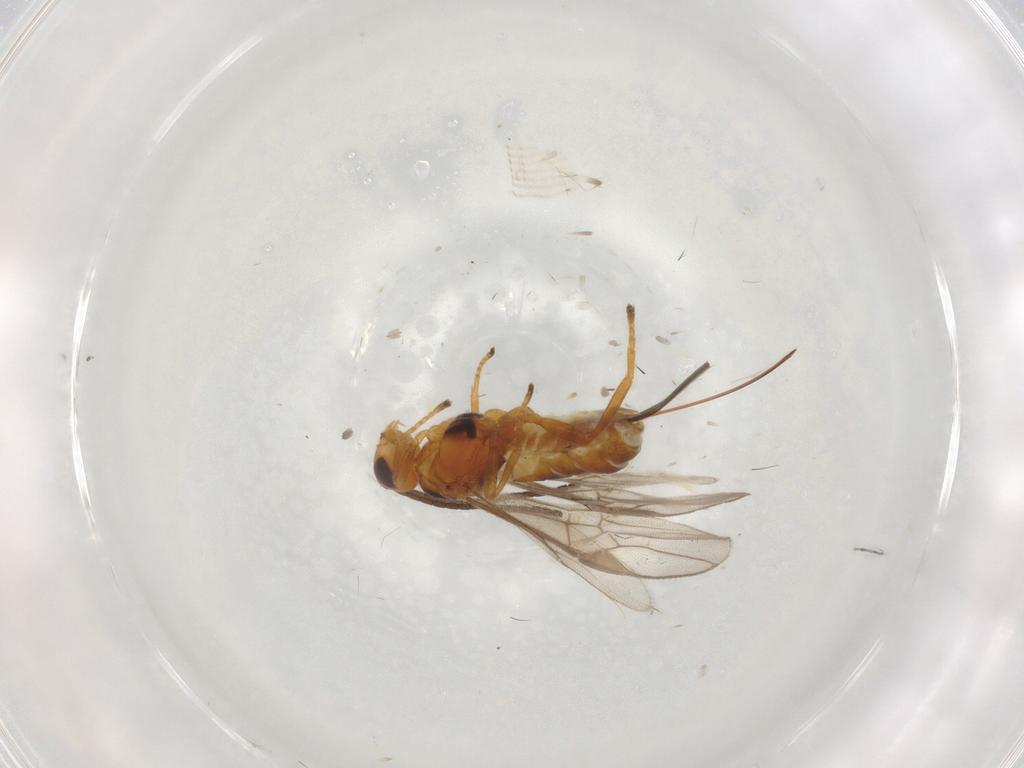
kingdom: Animalia
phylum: Arthropoda
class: Insecta
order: Hymenoptera
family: Braconidae
